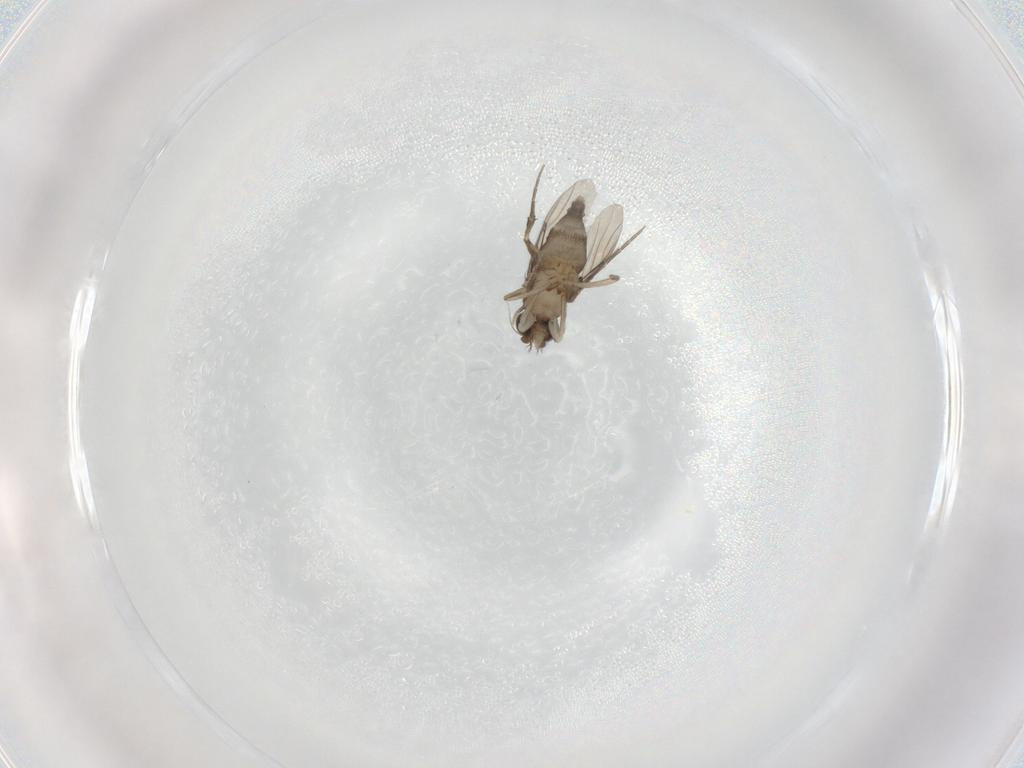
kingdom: Animalia
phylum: Arthropoda
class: Insecta
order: Diptera
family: Phoridae
